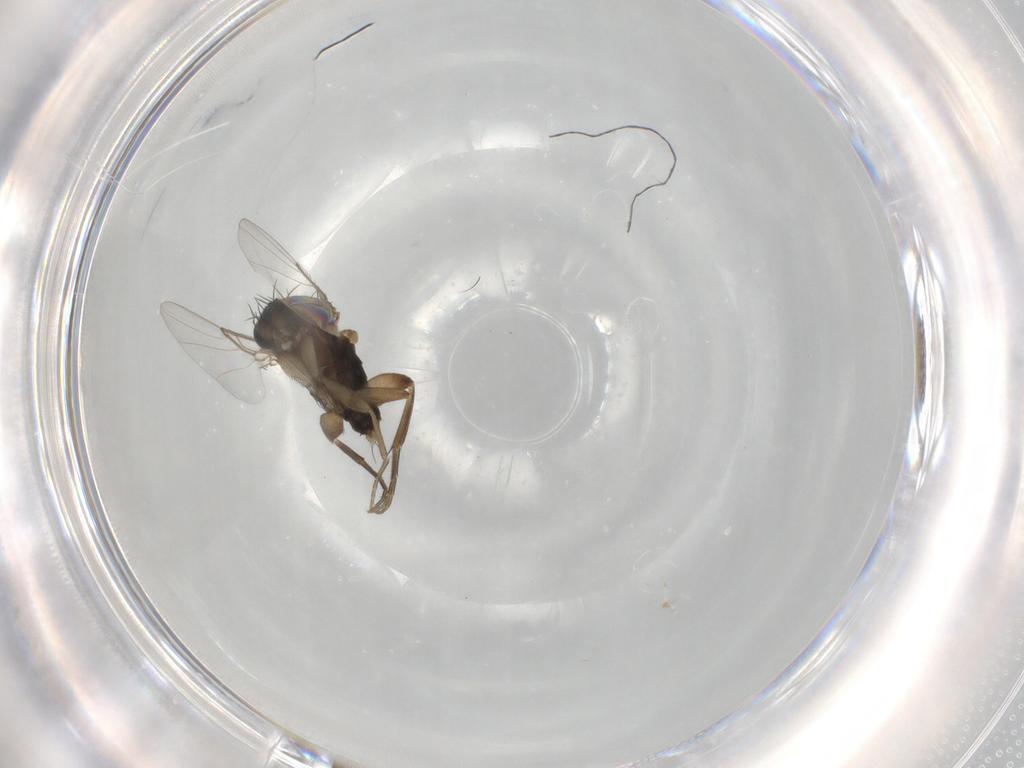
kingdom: Animalia
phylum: Arthropoda
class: Insecta
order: Diptera
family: Phoridae
